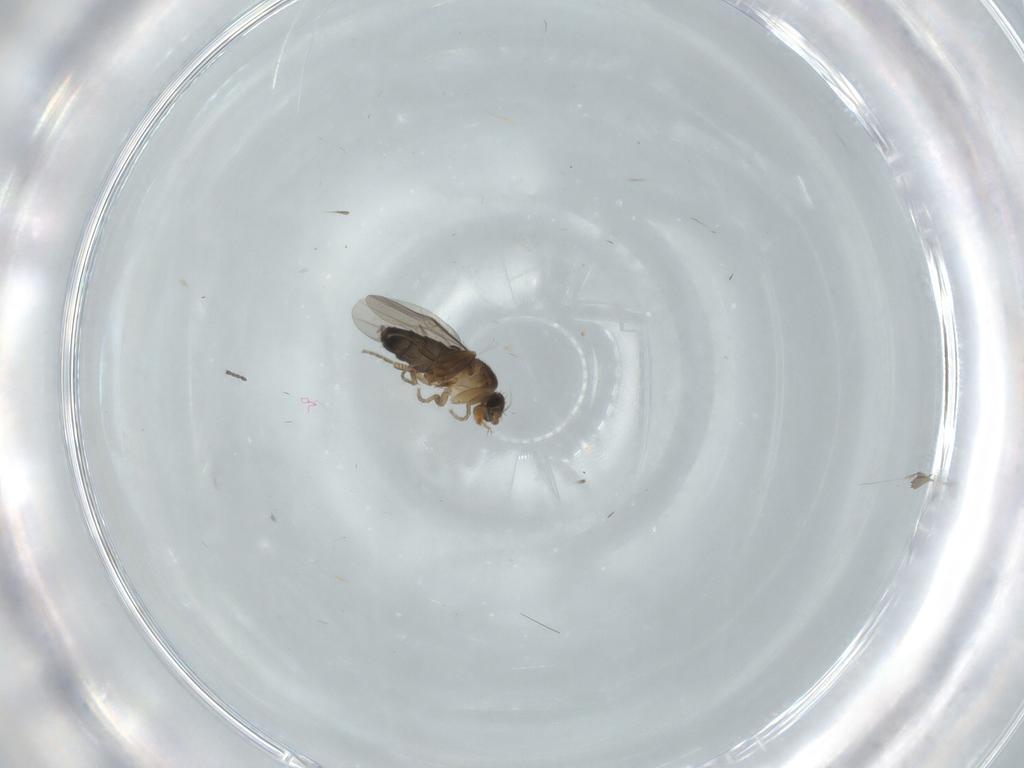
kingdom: Animalia
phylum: Arthropoda
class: Insecta
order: Diptera
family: Phoridae
